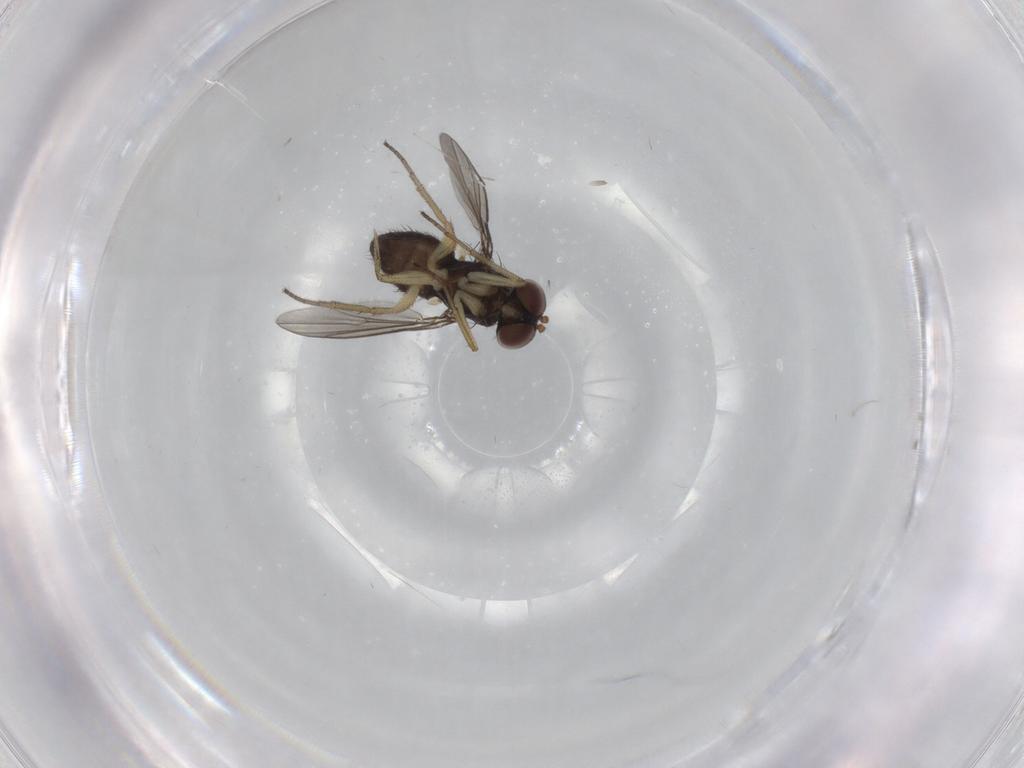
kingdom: Animalia
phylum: Arthropoda
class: Insecta
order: Diptera
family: Dolichopodidae
